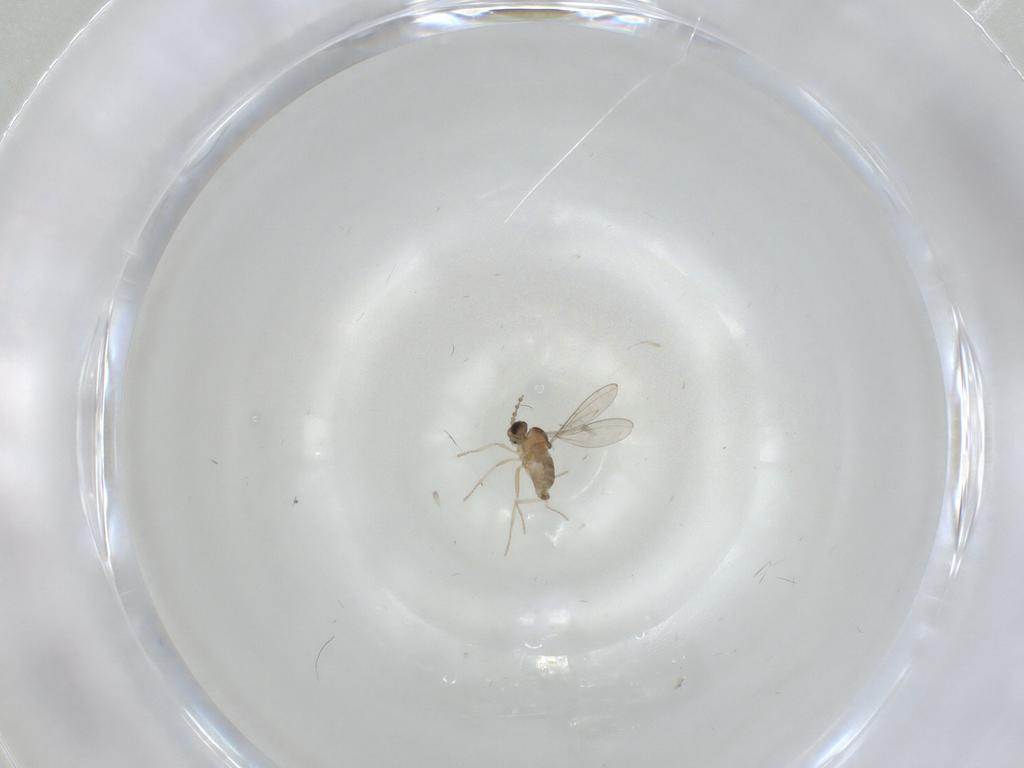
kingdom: Animalia
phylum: Arthropoda
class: Insecta
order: Diptera
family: Cecidomyiidae
